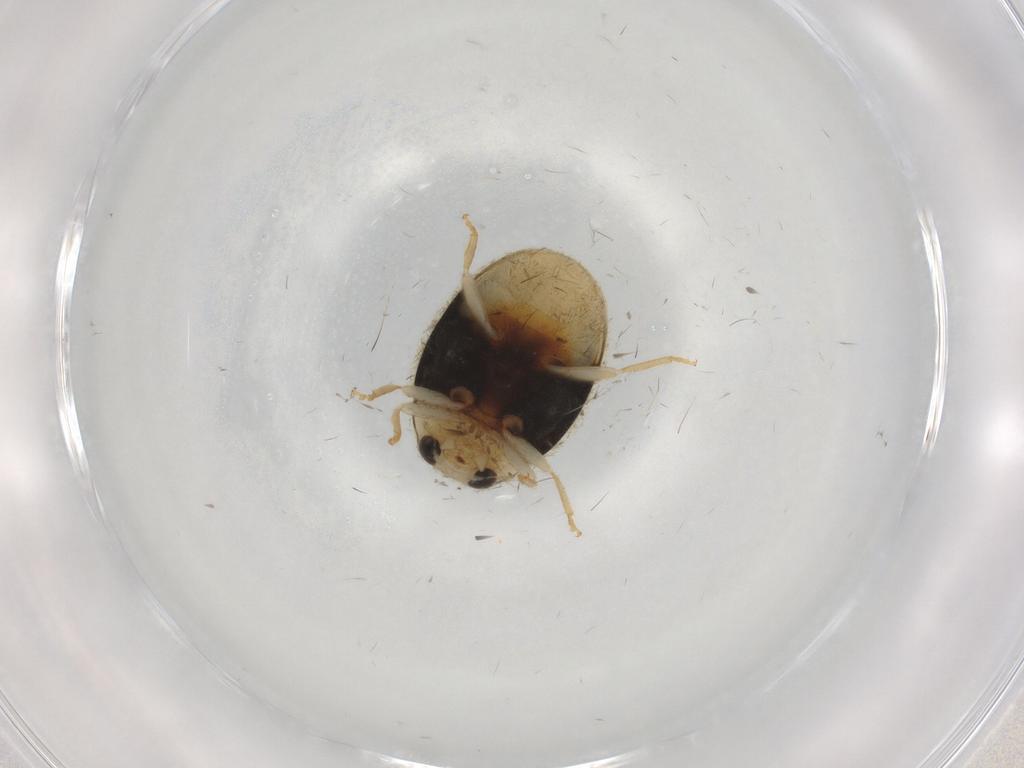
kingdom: Animalia
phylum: Arthropoda
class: Insecta
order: Coleoptera
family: Coccinellidae
